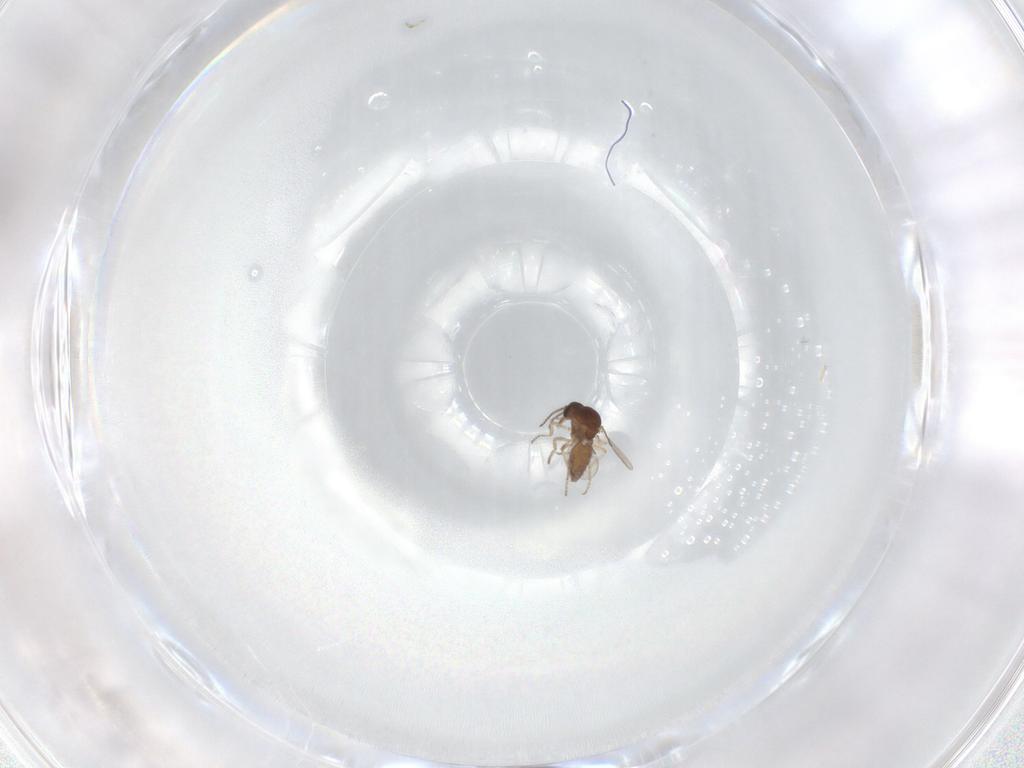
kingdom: Animalia
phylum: Arthropoda
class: Insecta
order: Diptera
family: Ceratopogonidae
